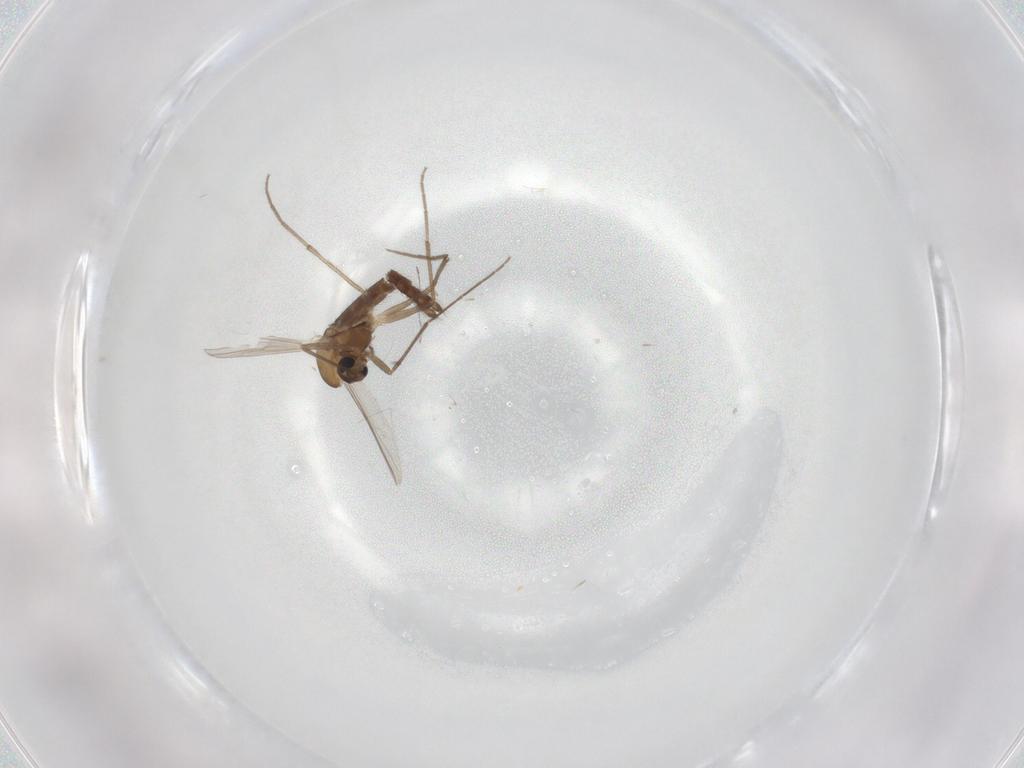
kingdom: Animalia
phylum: Arthropoda
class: Insecta
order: Diptera
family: Chironomidae
